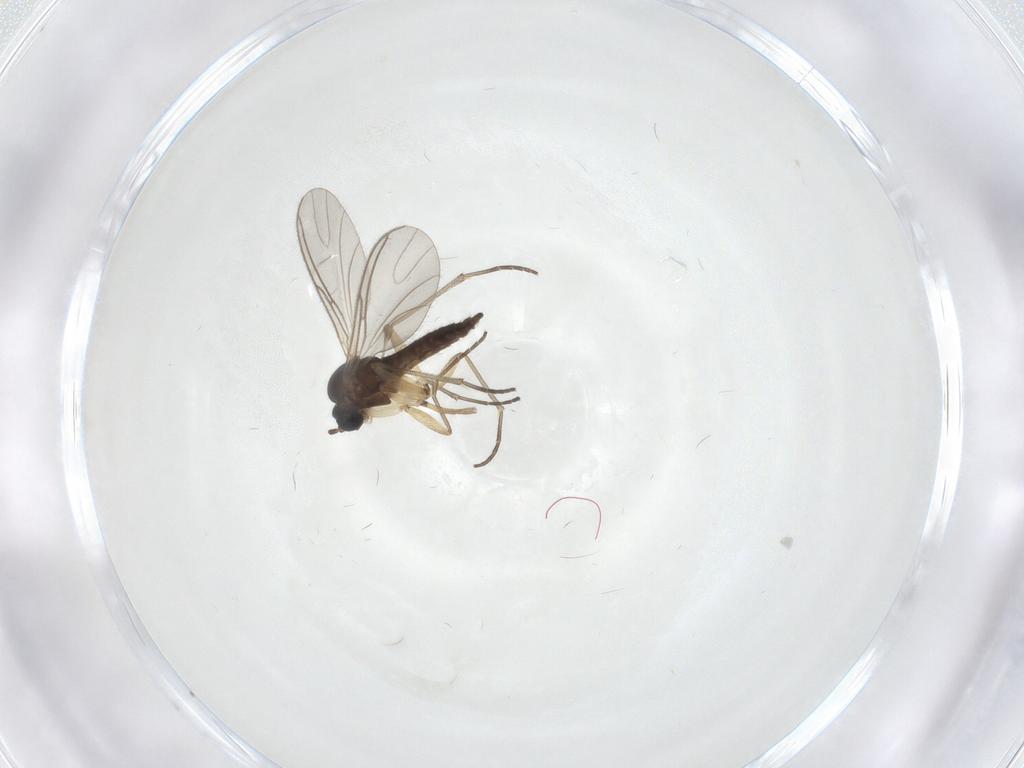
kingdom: Animalia
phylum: Arthropoda
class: Insecta
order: Diptera
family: Sciaridae
